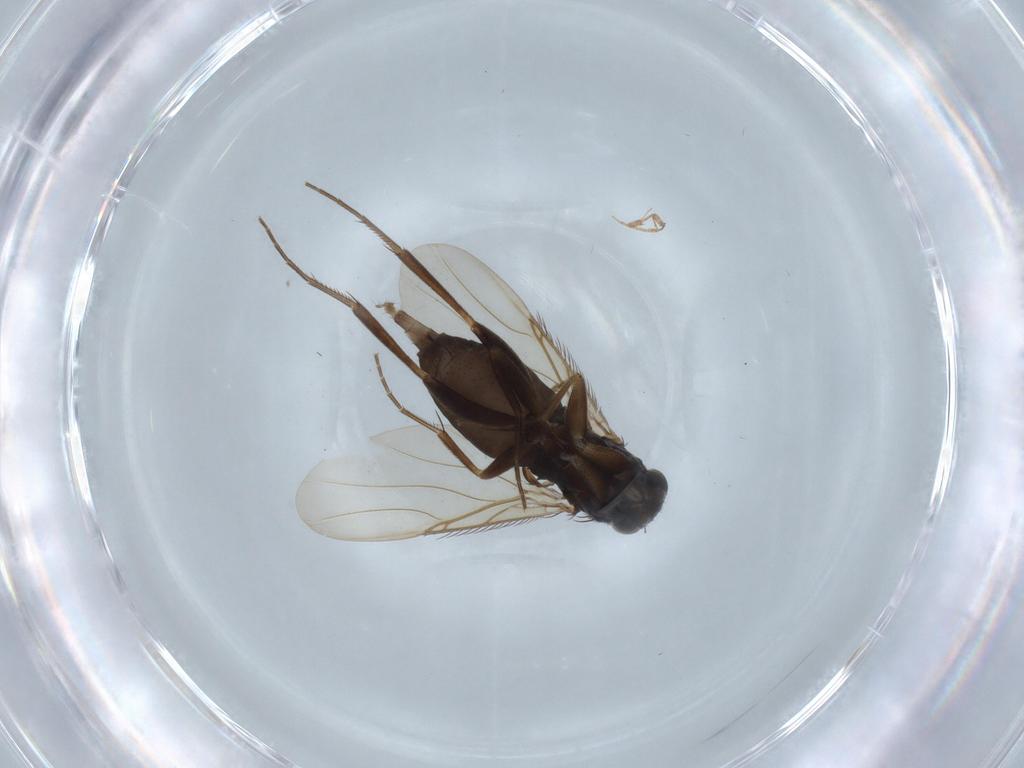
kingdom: Animalia
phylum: Arthropoda
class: Insecta
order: Diptera
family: Phoridae
